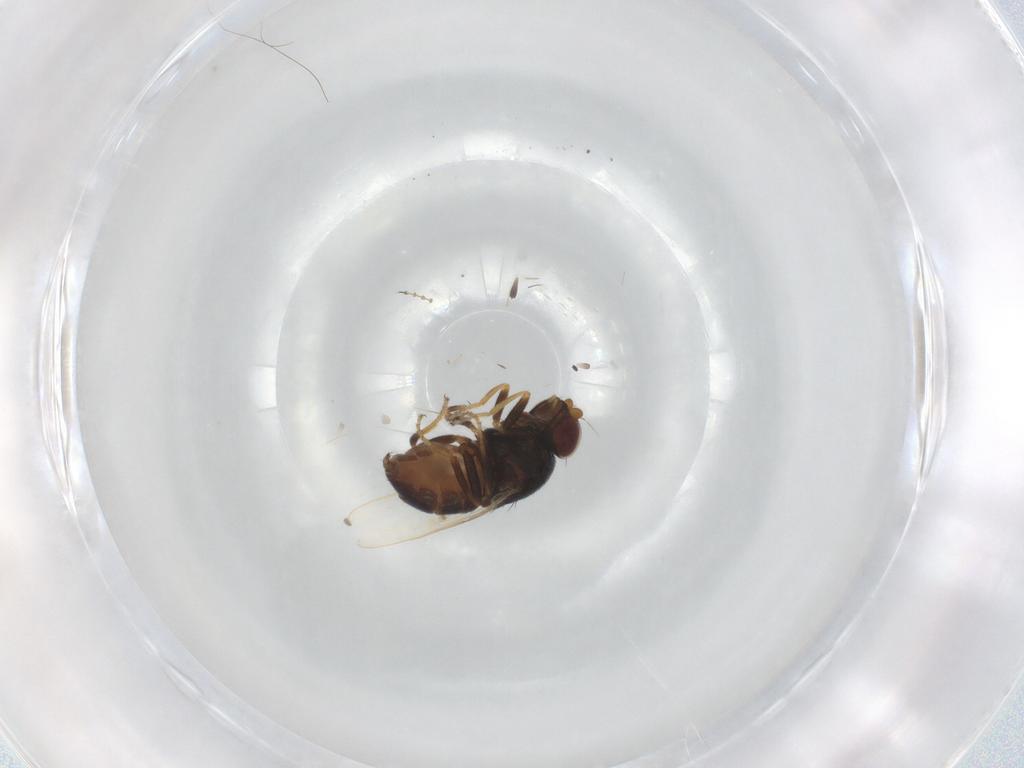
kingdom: Animalia
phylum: Arthropoda
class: Insecta
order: Diptera
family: Chloropidae
